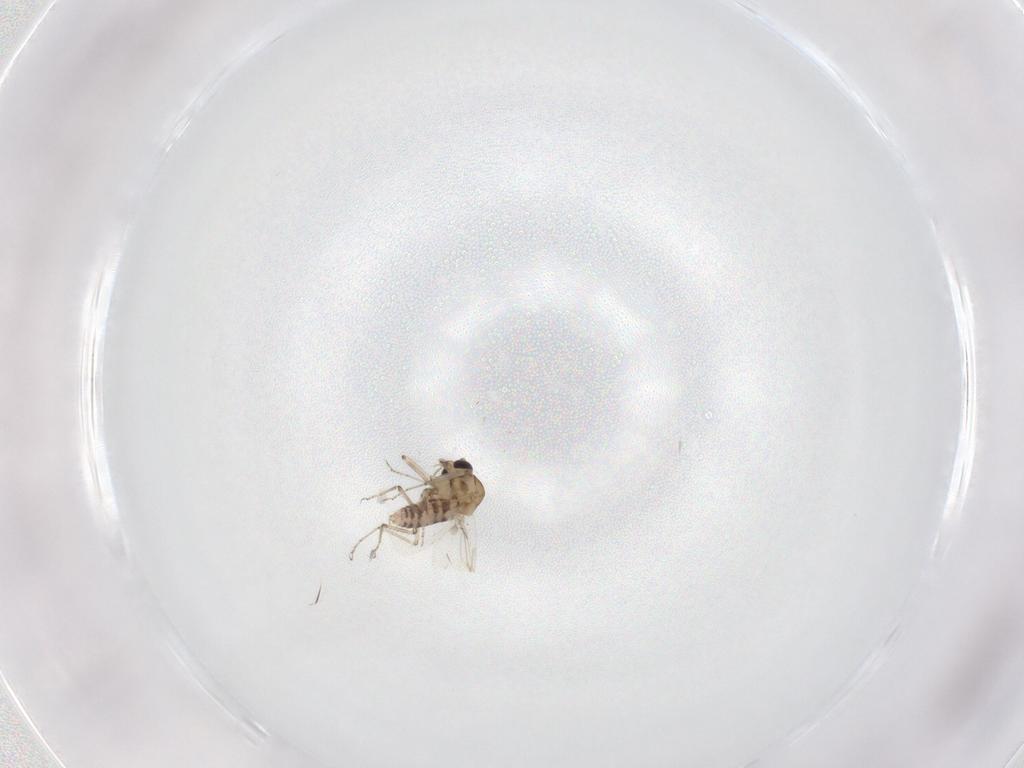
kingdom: Animalia
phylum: Arthropoda
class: Insecta
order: Diptera
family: Ceratopogonidae
